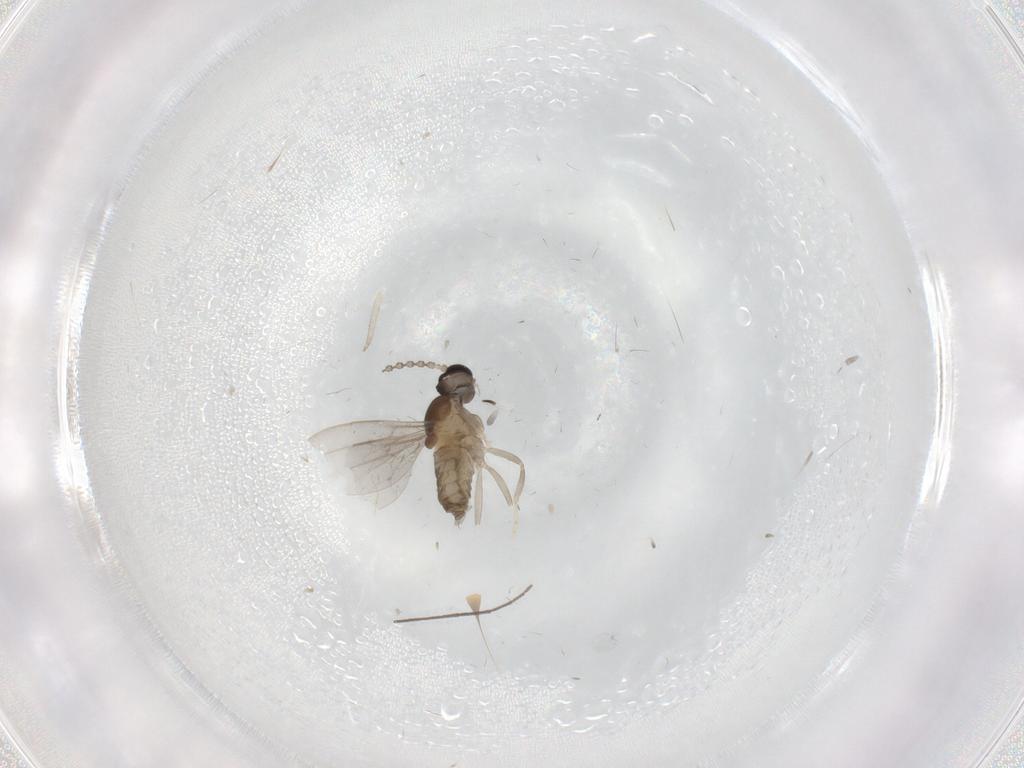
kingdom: Animalia
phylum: Arthropoda
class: Insecta
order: Diptera
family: Cecidomyiidae
